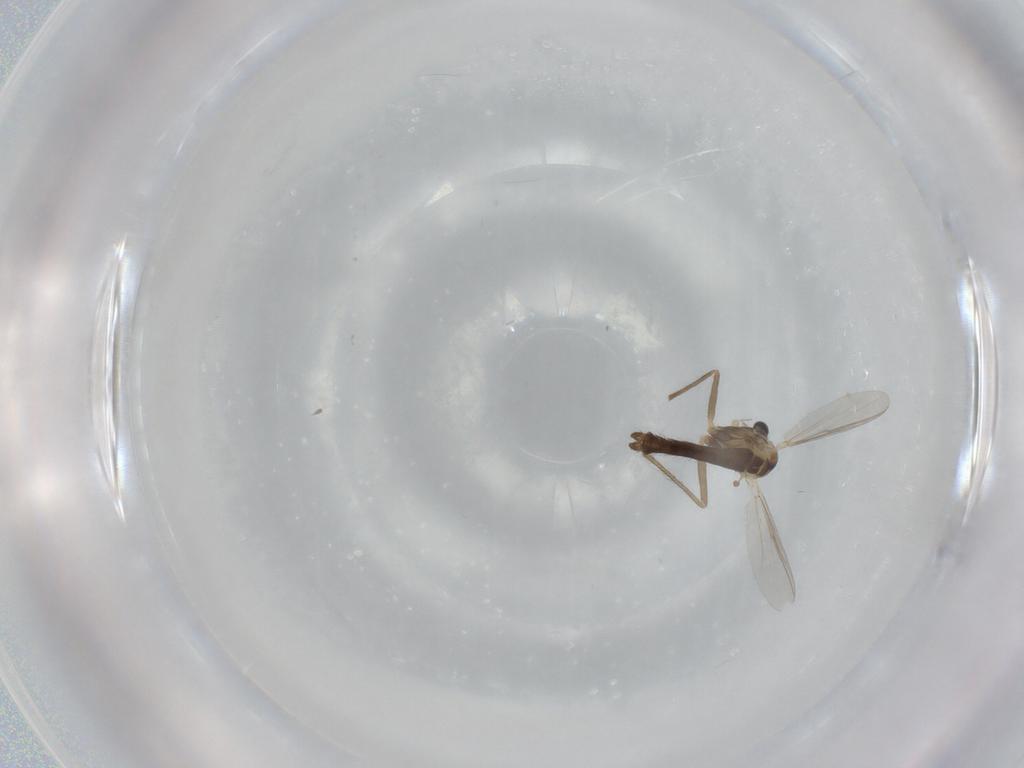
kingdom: Animalia
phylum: Arthropoda
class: Insecta
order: Diptera
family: Chironomidae
